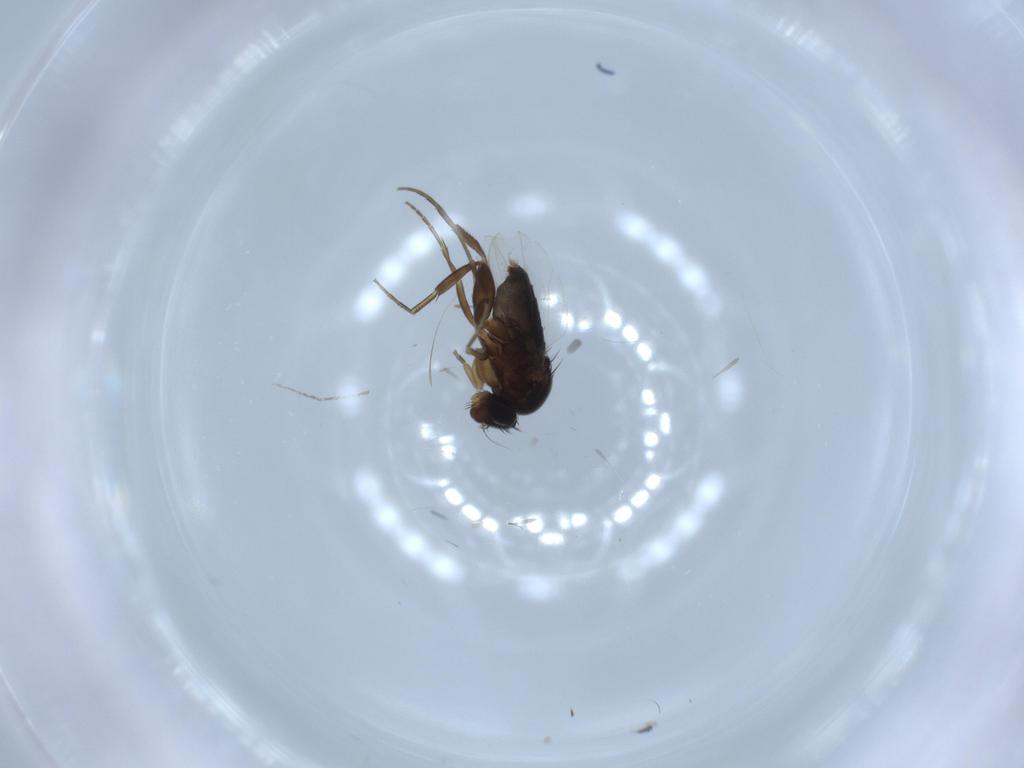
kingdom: Animalia
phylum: Arthropoda
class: Insecta
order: Diptera
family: Phoridae
